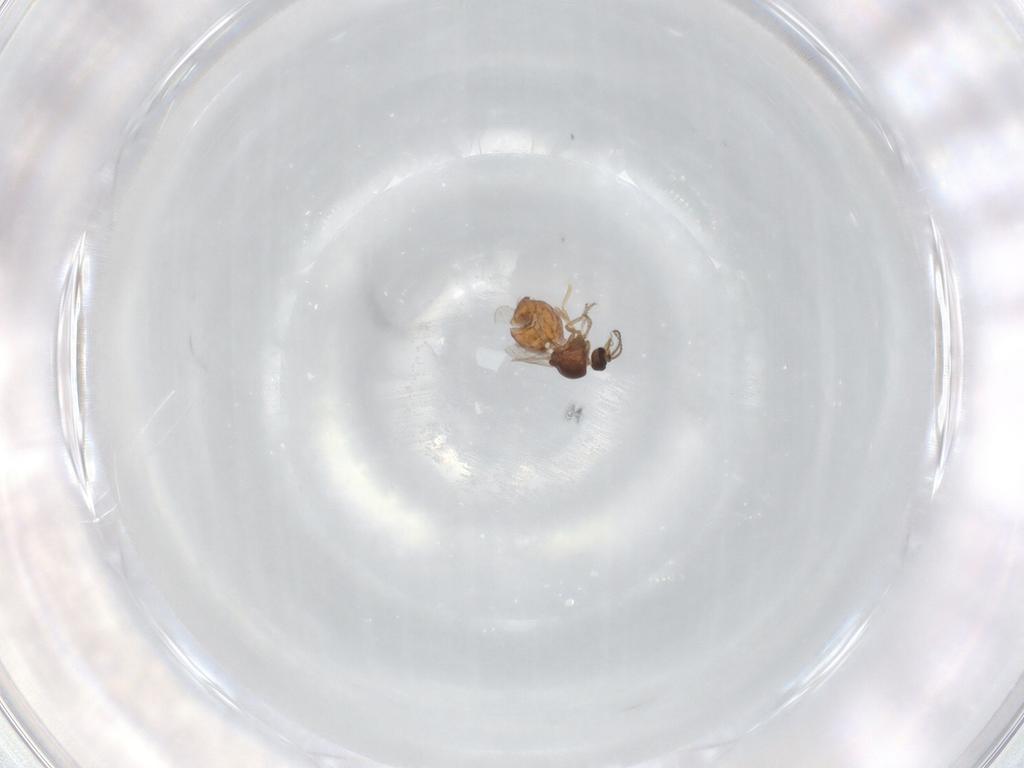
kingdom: Animalia
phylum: Arthropoda
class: Insecta
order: Diptera
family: Ceratopogonidae
